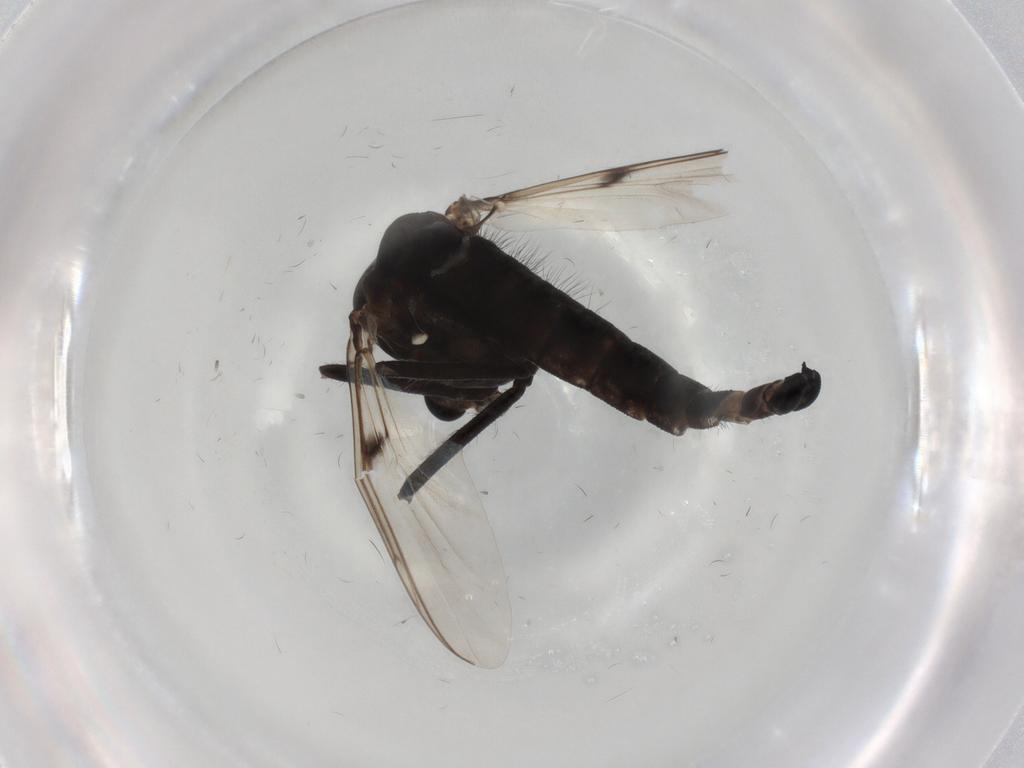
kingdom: Animalia
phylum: Arthropoda
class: Insecta
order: Diptera
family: Chironomidae
